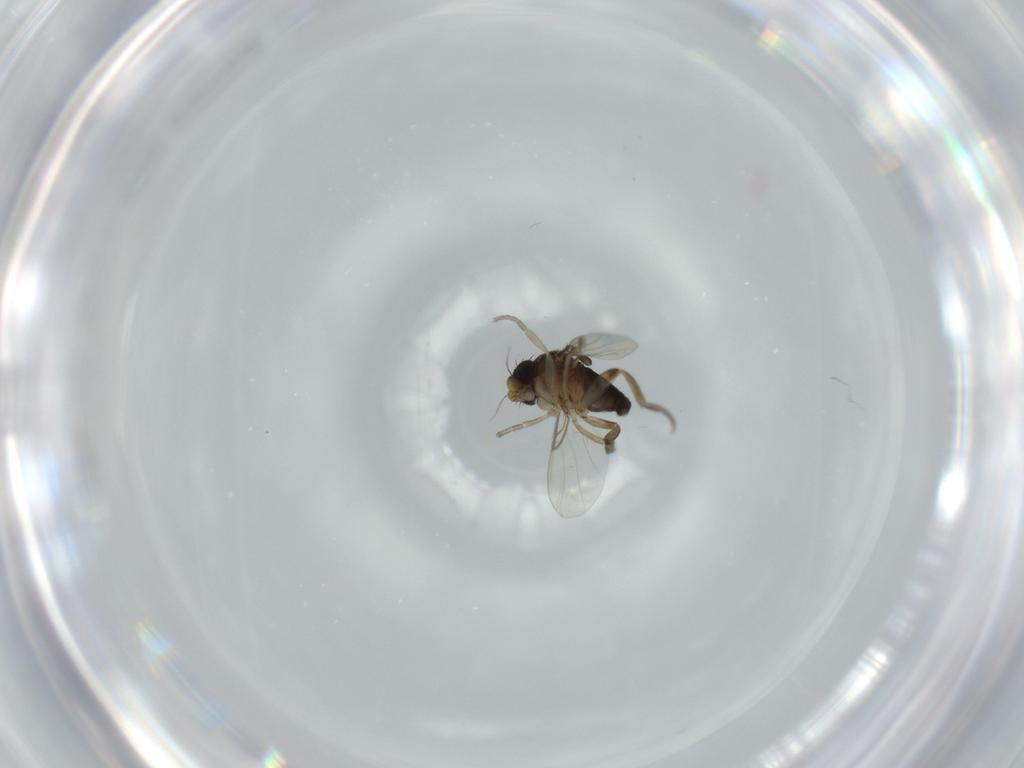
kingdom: Animalia
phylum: Arthropoda
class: Insecta
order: Diptera
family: Phoridae
